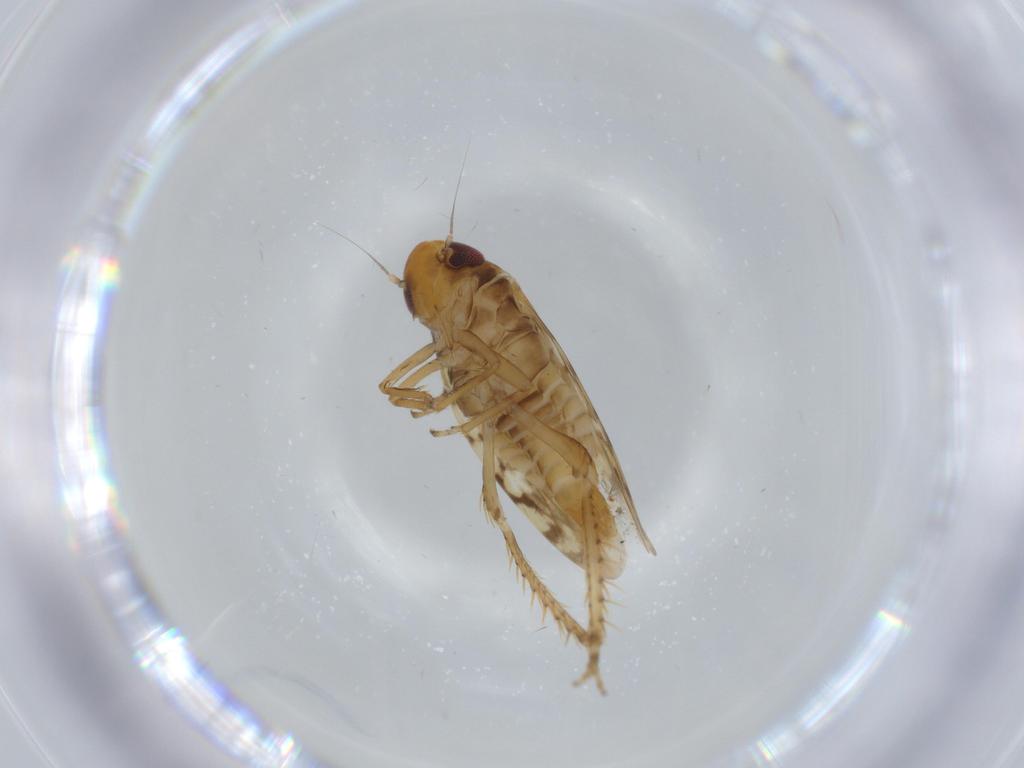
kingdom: Animalia
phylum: Arthropoda
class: Insecta
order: Hemiptera
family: Cicadellidae
